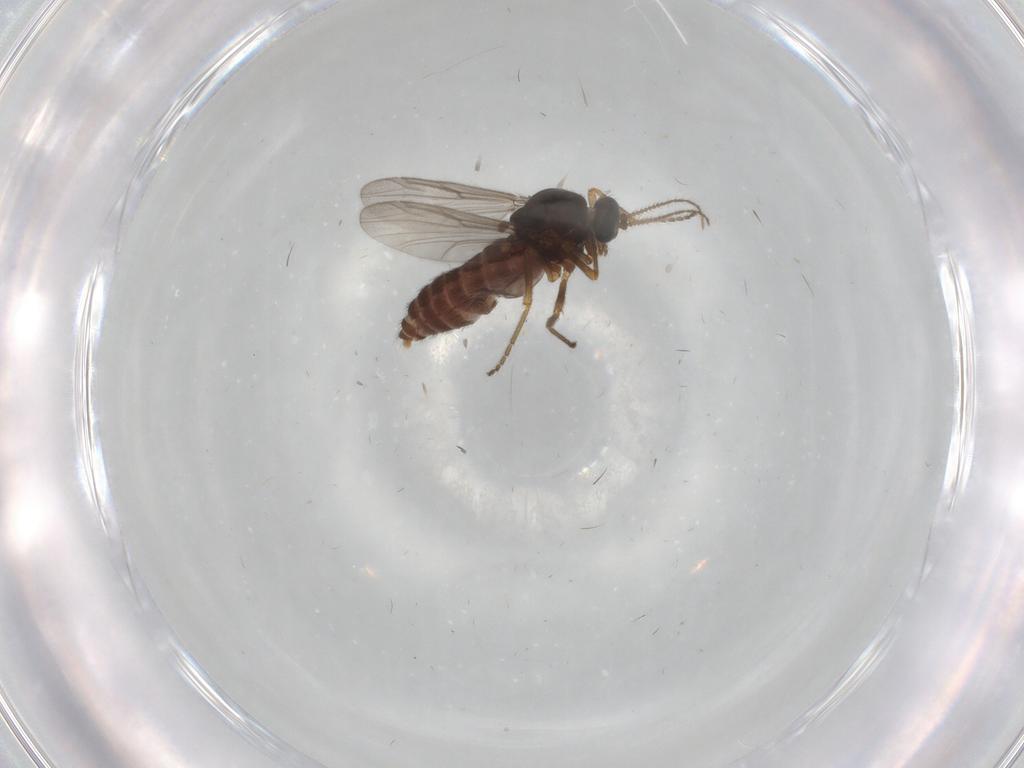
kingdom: Animalia
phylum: Arthropoda
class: Insecta
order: Diptera
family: Ceratopogonidae
